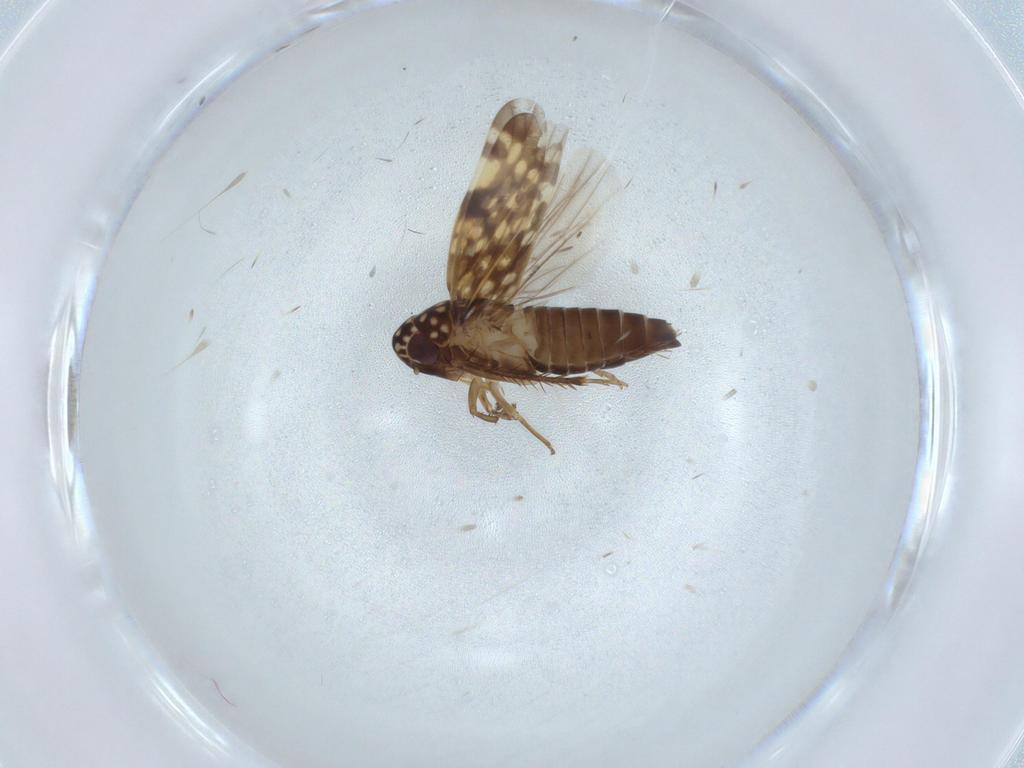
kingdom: Animalia
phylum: Arthropoda
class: Insecta
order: Hemiptera
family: Cicadellidae
